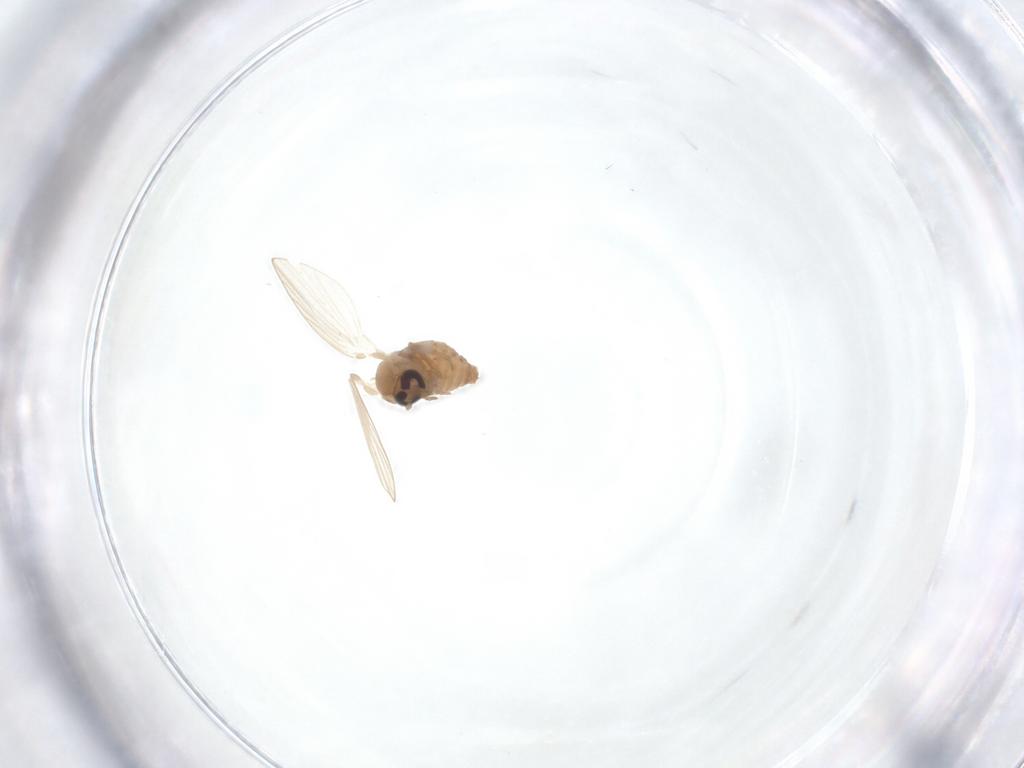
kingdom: Animalia
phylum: Arthropoda
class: Insecta
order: Diptera
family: Psychodidae
